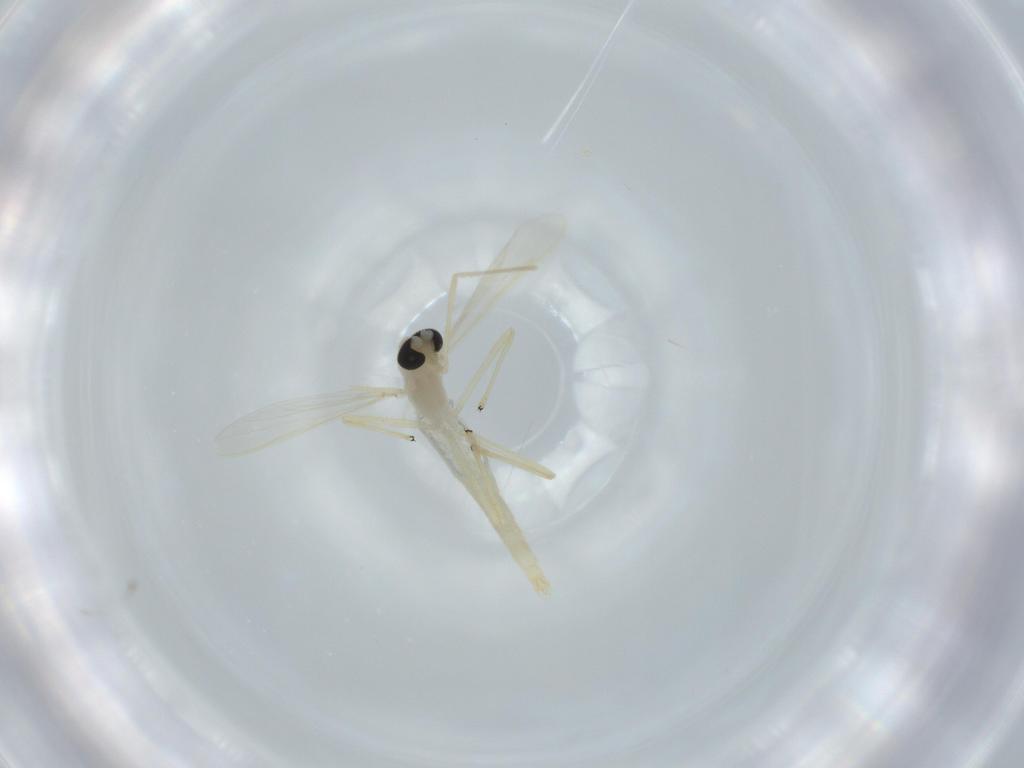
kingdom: Animalia
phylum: Arthropoda
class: Insecta
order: Diptera
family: Chironomidae
